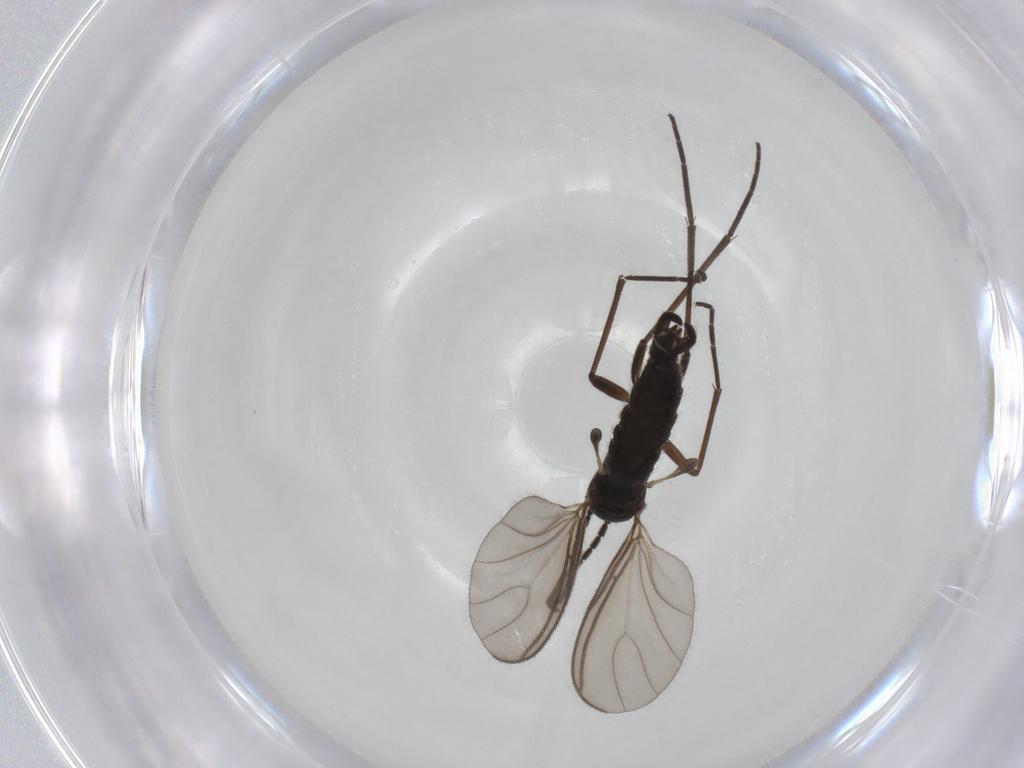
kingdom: Animalia
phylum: Arthropoda
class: Insecta
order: Diptera
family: Sciaridae
